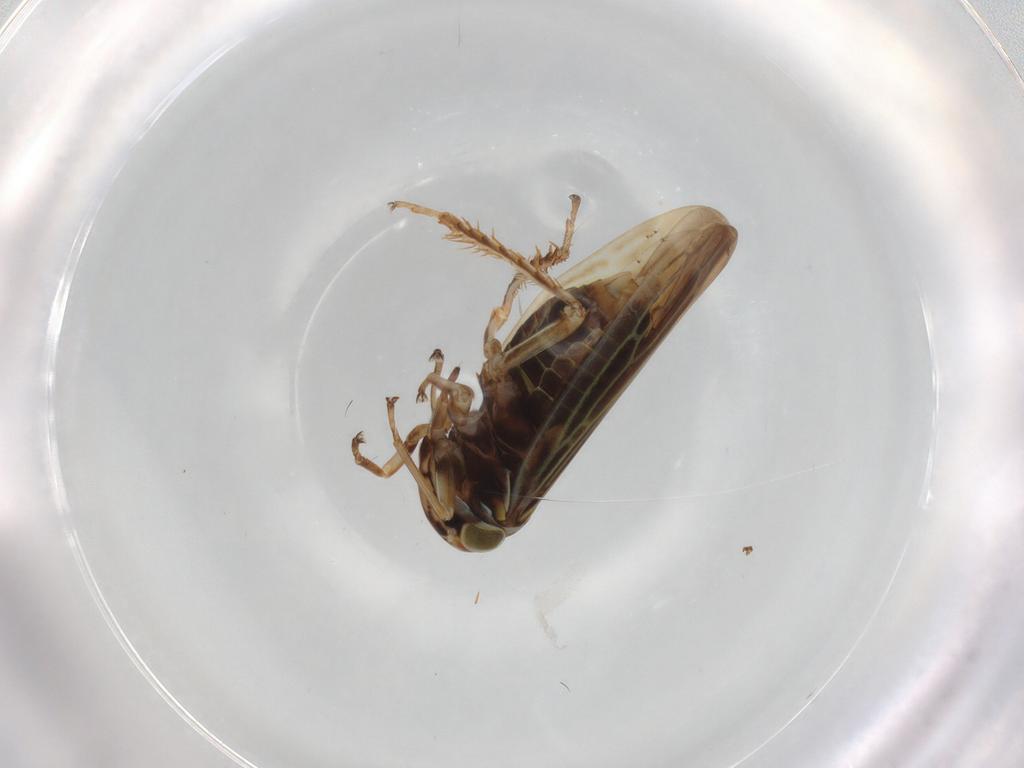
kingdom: Animalia
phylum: Arthropoda
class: Insecta
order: Hemiptera
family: Cicadellidae
